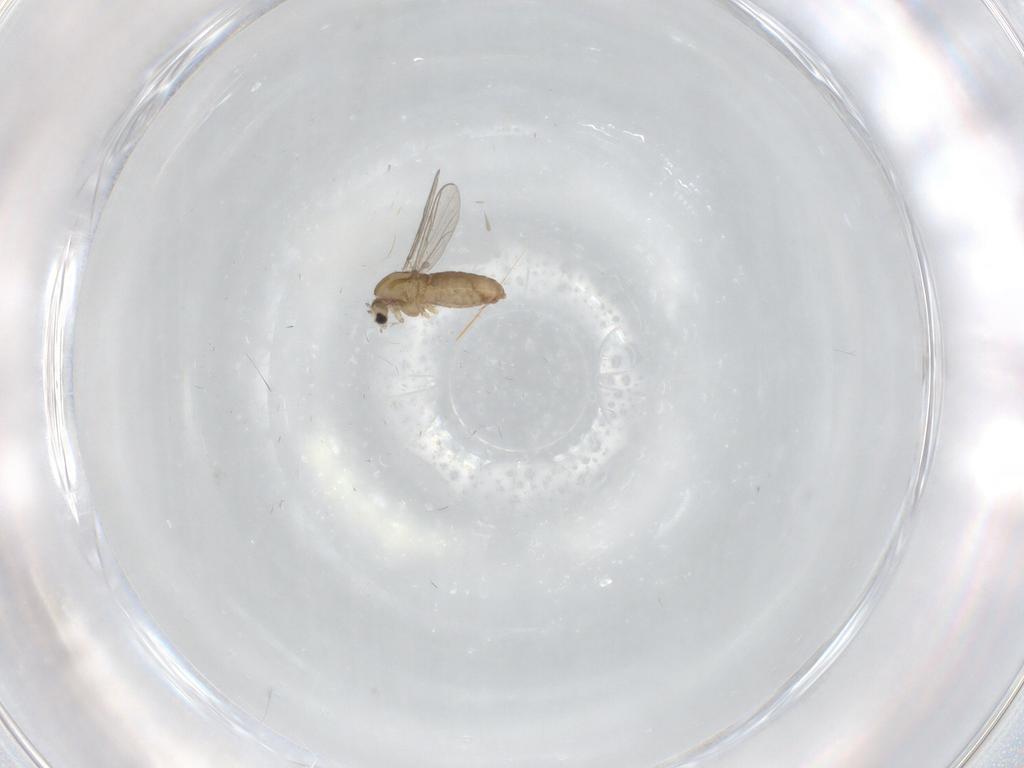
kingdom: Animalia
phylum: Arthropoda
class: Insecta
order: Diptera
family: Chironomidae
